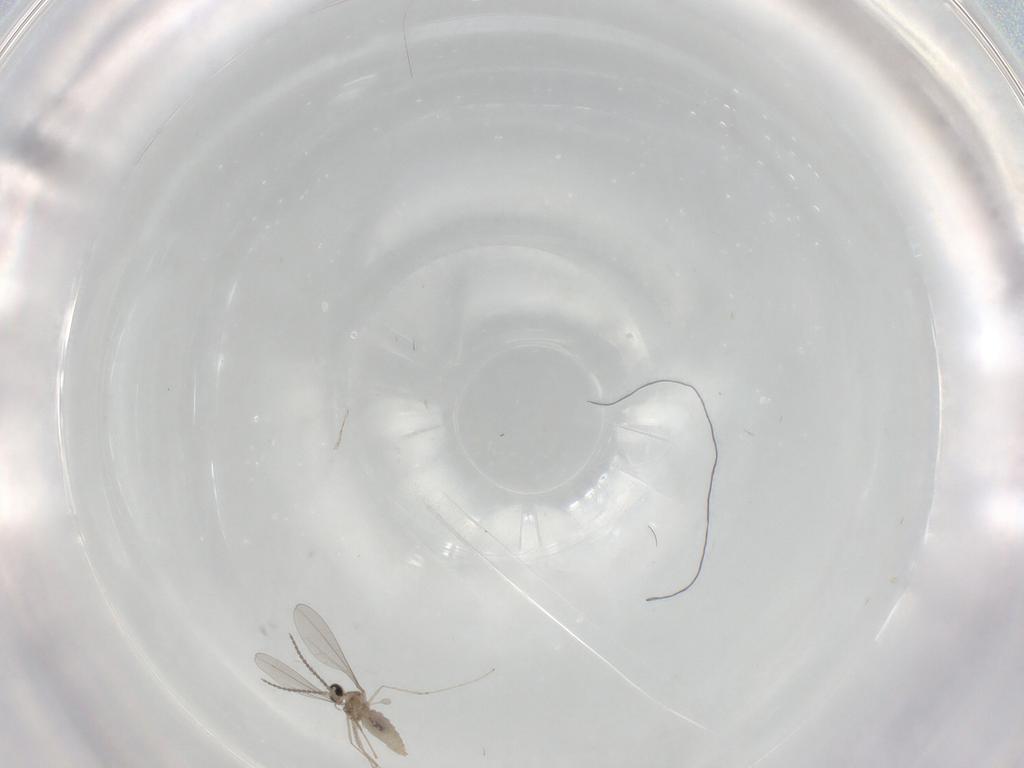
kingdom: Animalia
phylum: Arthropoda
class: Insecta
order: Diptera
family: Cecidomyiidae
